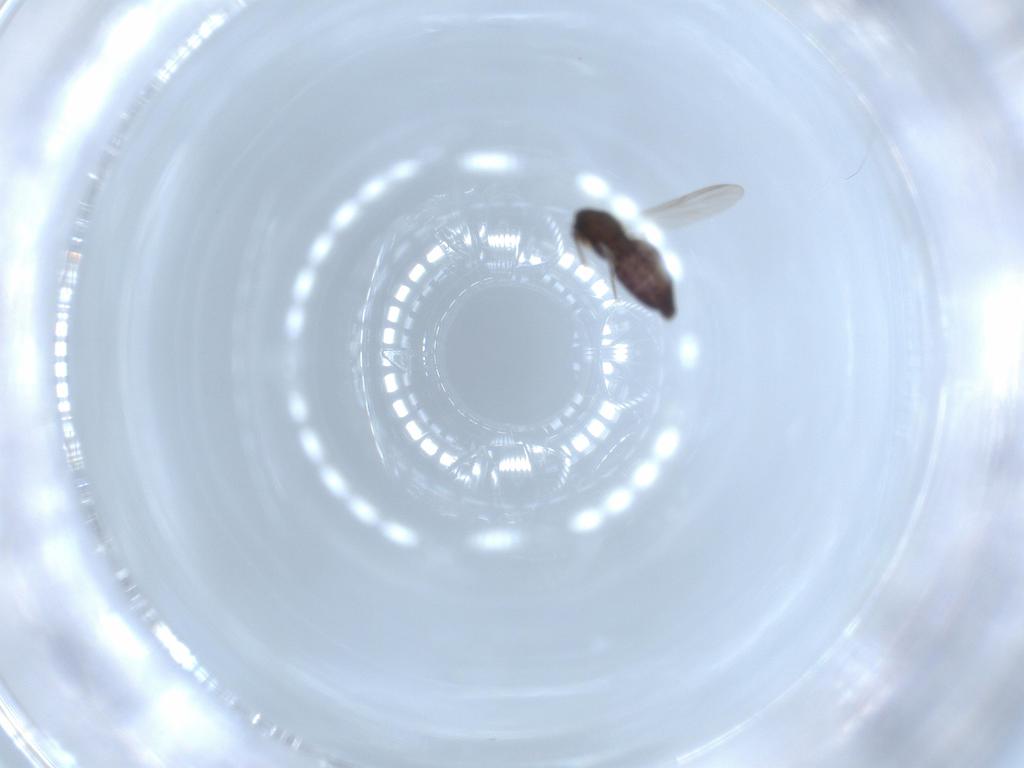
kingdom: Animalia
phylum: Arthropoda
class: Insecta
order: Diptera
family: Chironomidae
